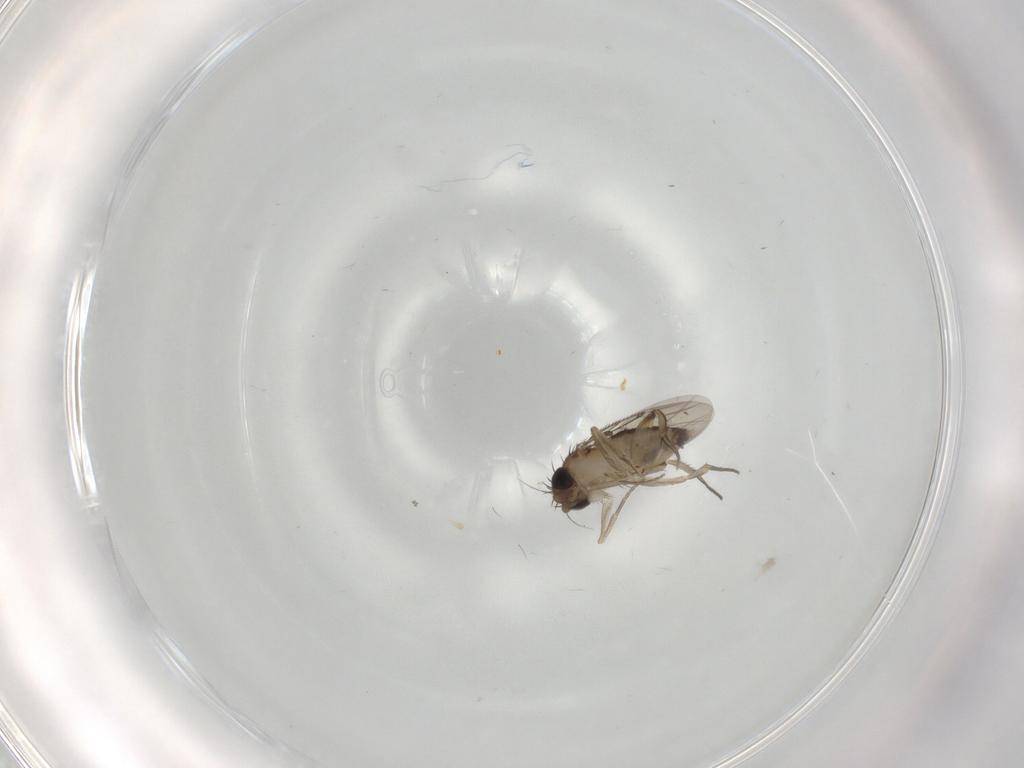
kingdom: Animalia
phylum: Arthropoda
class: Insecta
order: Diptera
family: Phoridae
